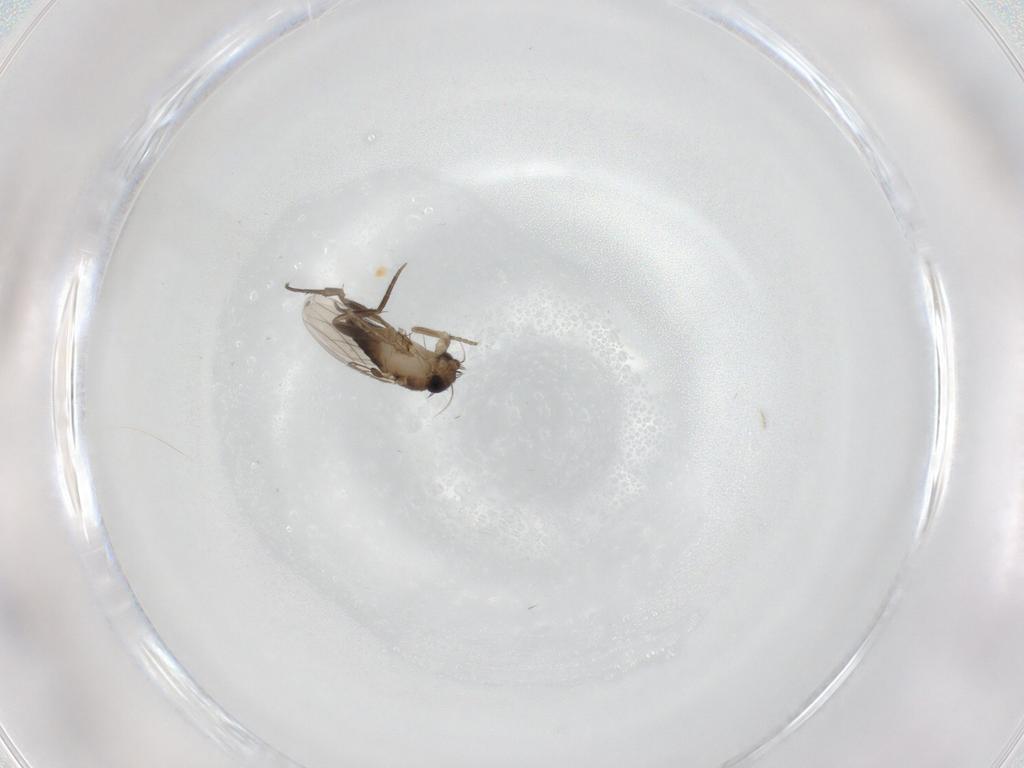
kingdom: Animalia
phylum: Arthropoda
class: Insecta
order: Diptera
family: Phoridae
